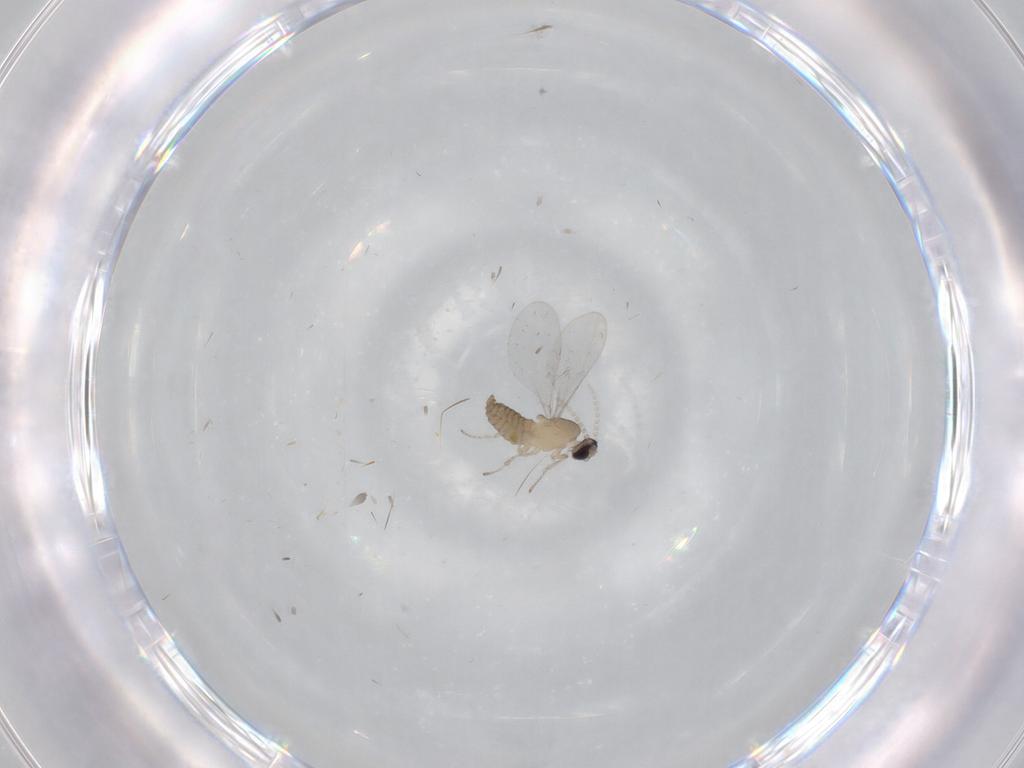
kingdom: Animalia
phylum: Arthropoda
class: Insecta
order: Diptera
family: Cecidomyiidae
